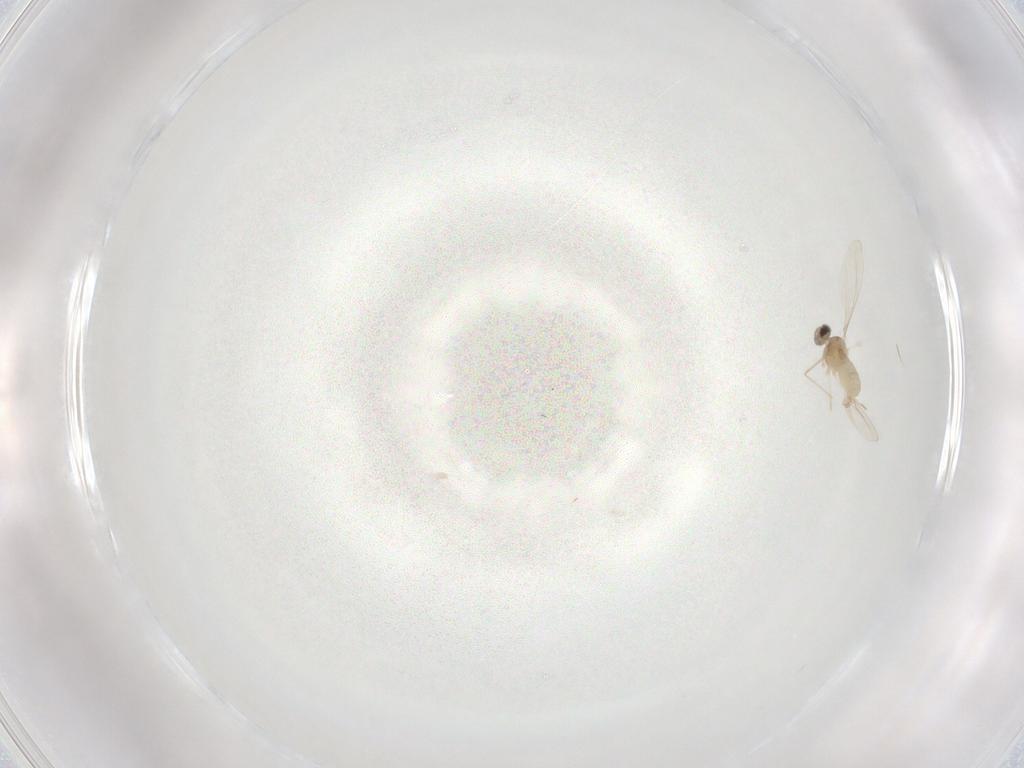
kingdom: Animalia
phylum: Arthropoda
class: Insecta
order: Diptera
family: Cecidomyiidae
